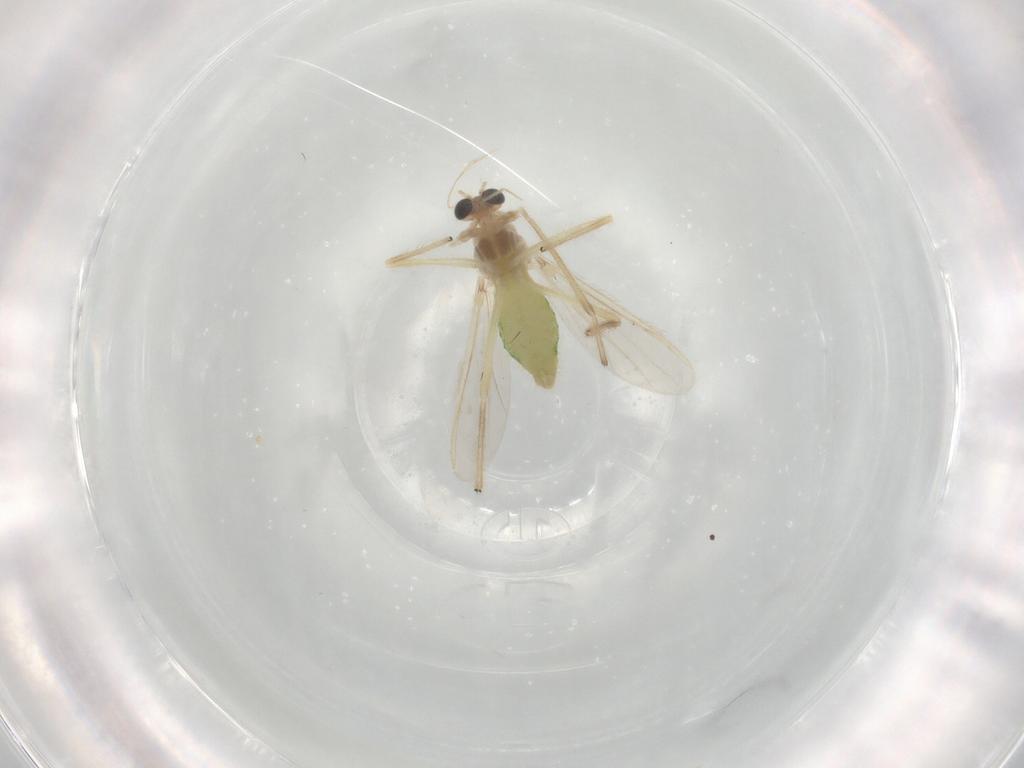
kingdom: Animalia
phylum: Arthropoda
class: Insecta
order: Diptera
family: Chironomidae
